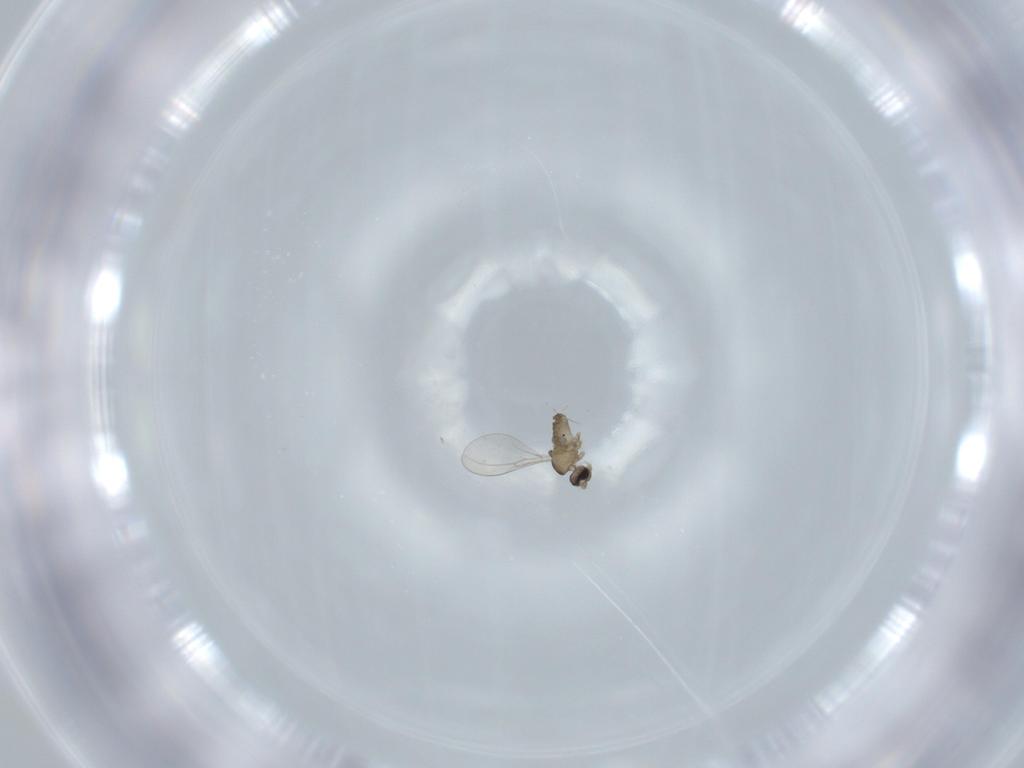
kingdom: Animalia
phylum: Arthropoda
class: Insecta
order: Diptera
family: Cecidomyiidae
